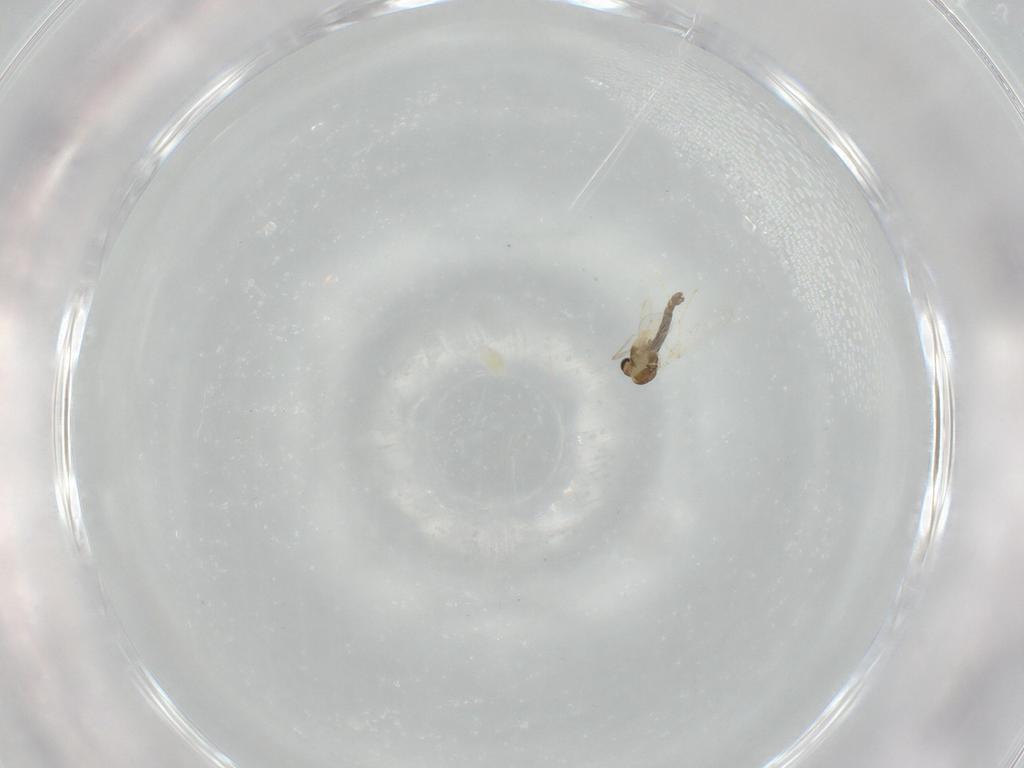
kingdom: Animalia
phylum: Arthropoda
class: Insecta
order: Diptera
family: Chironomidae
